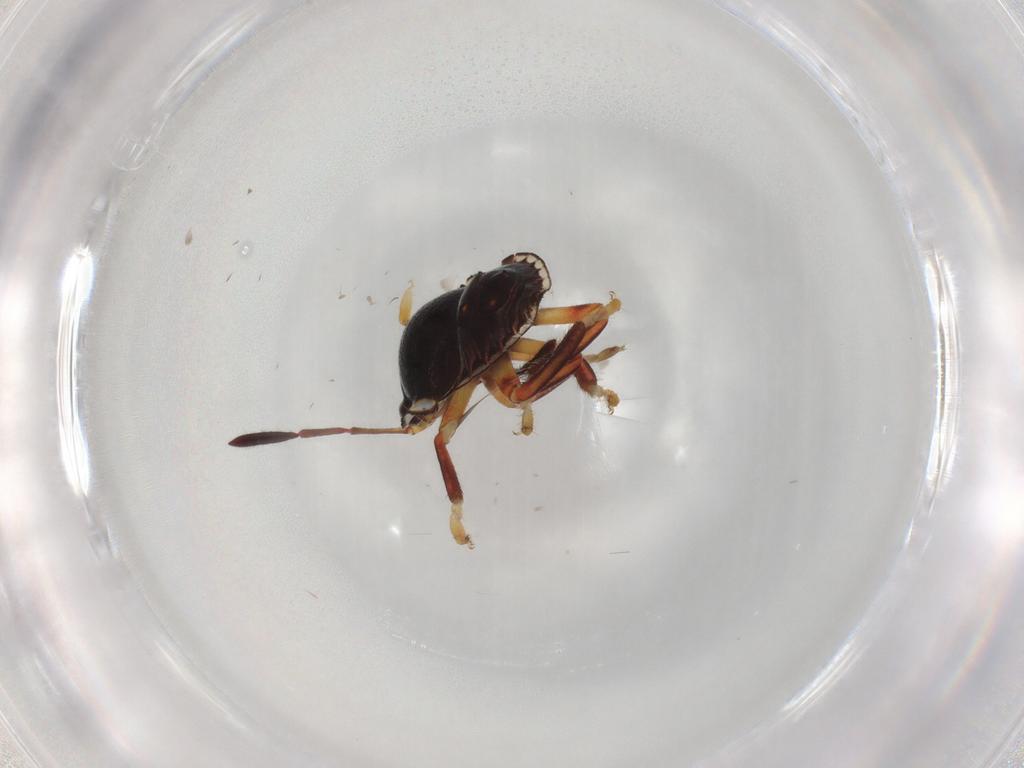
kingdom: Animalia
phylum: Arthropoda
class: Insecta
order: Hemiptera
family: Pentatomidae
